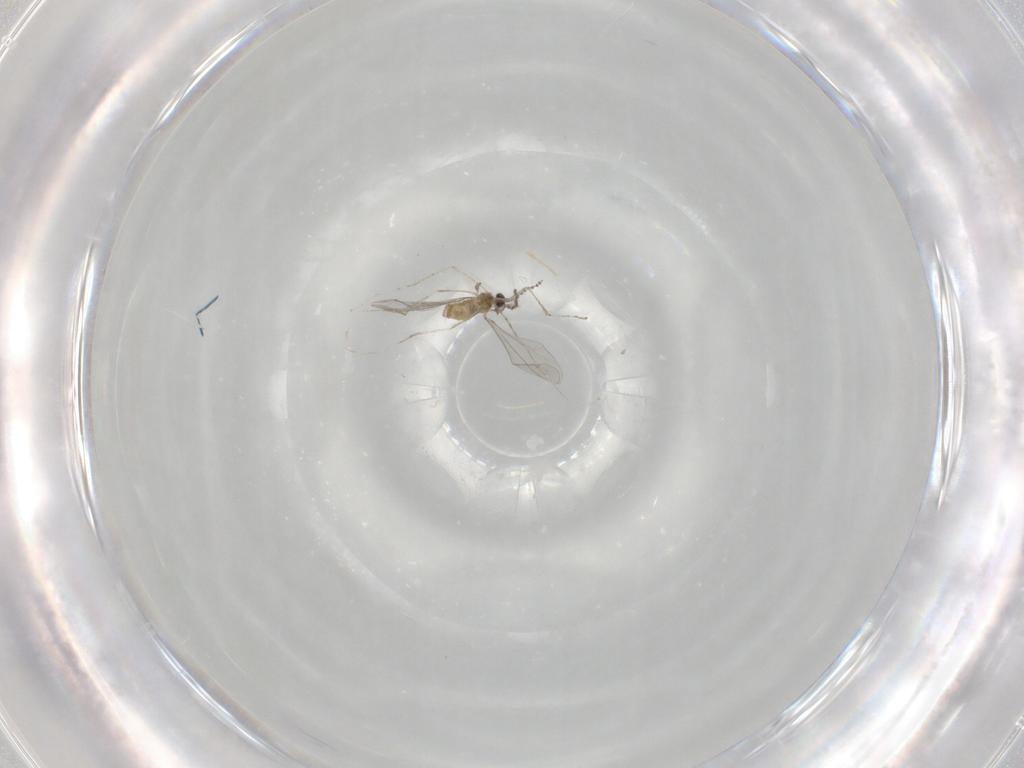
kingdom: Animalia
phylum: Arthropoda
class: Insecta
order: Diptera
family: Cecidomyiidae
